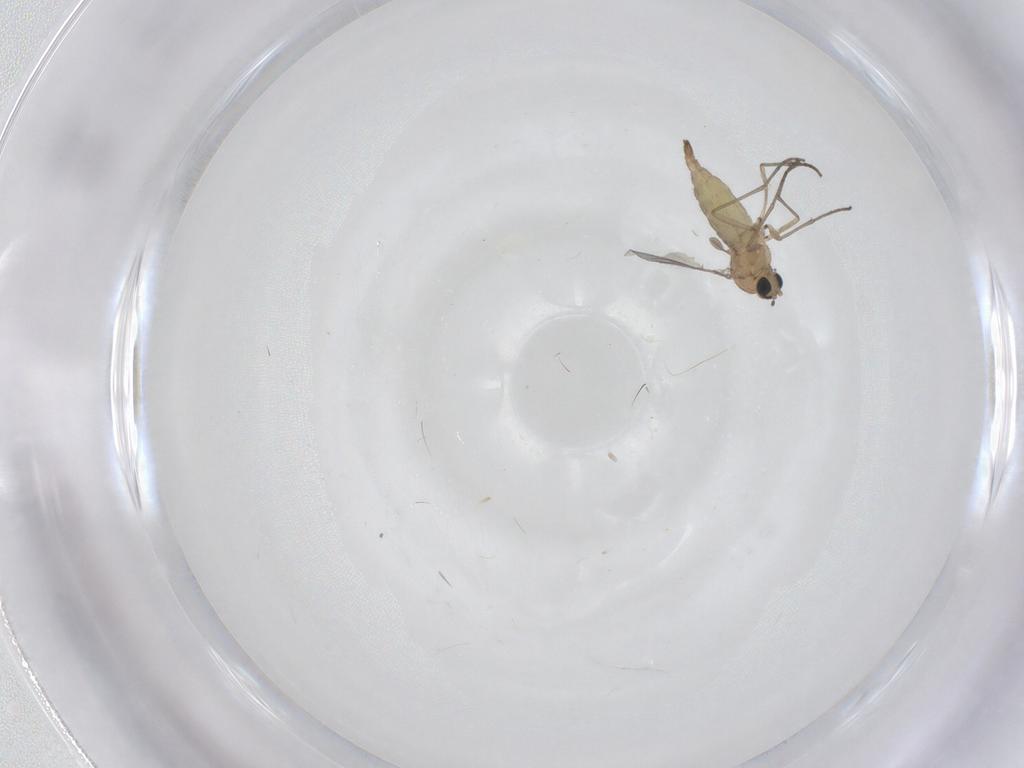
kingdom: Animalia
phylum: Arthropoda
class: Insecta
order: Diptera
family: Sciaridae
